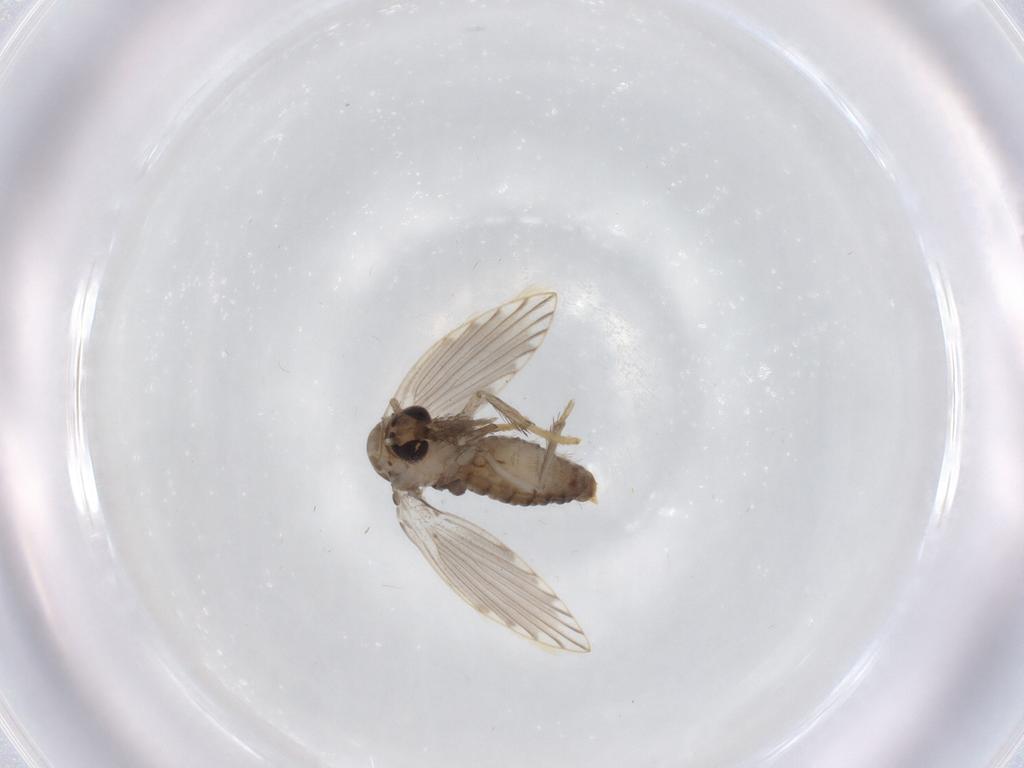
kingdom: Animalia
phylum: Arthropoda
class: Insecta
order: Diptera
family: Psychodidae
